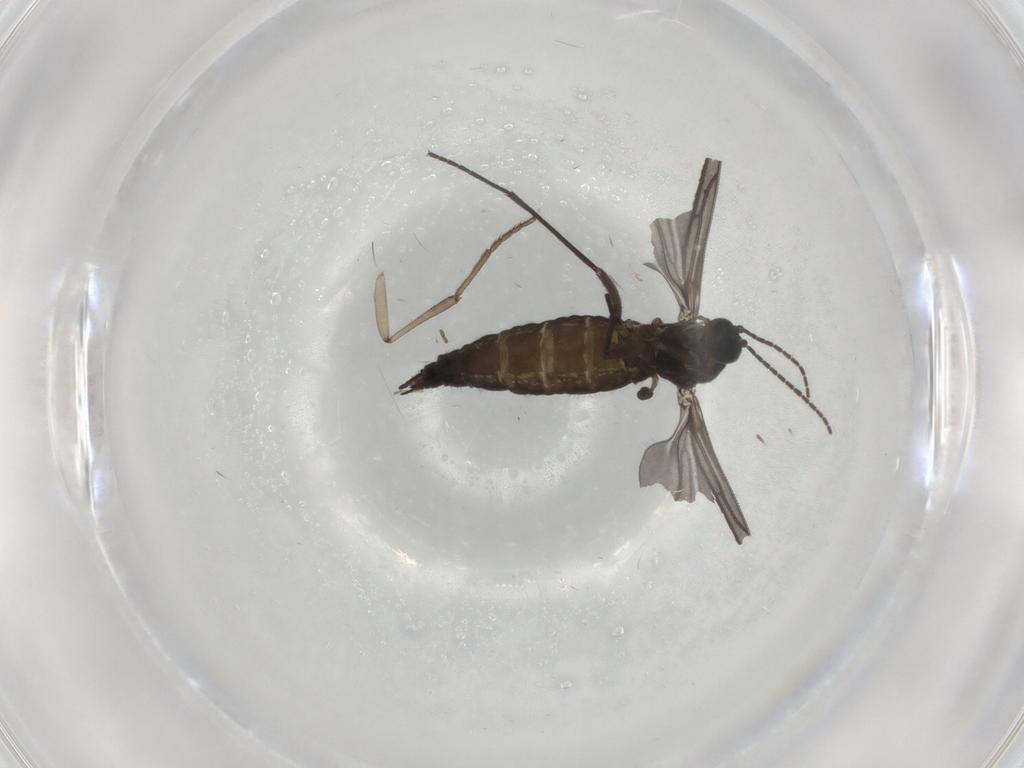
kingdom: Animalia
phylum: Arthropoda
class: Insecta
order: Diptera
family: Sciaridae
